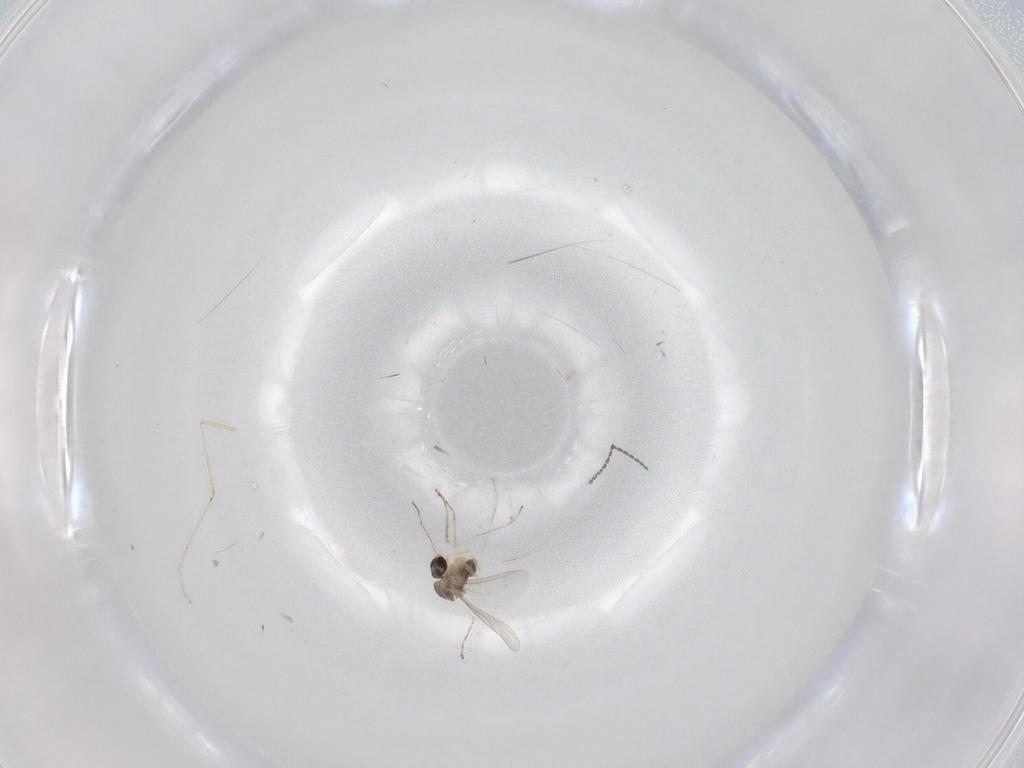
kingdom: Animalia
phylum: Arthropoda
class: Insecta
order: Diptera
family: Cecidomyiidae
